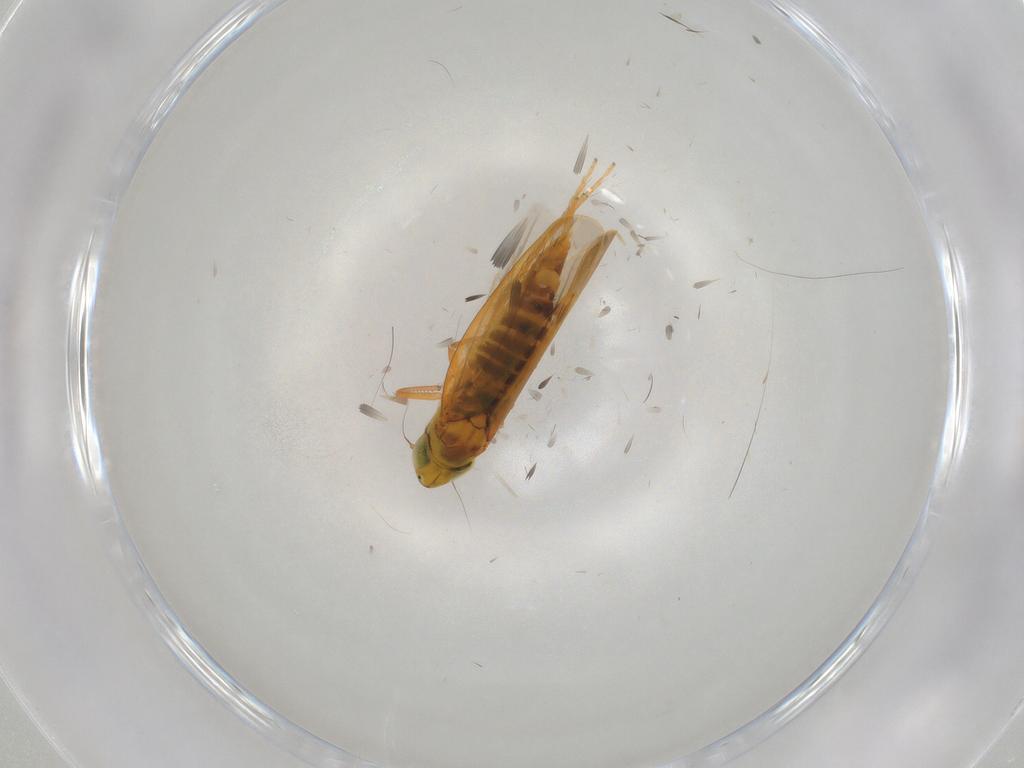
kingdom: Animalia
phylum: Arthropoda
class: Insecta
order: Hemiptera
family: Cicadellidae
